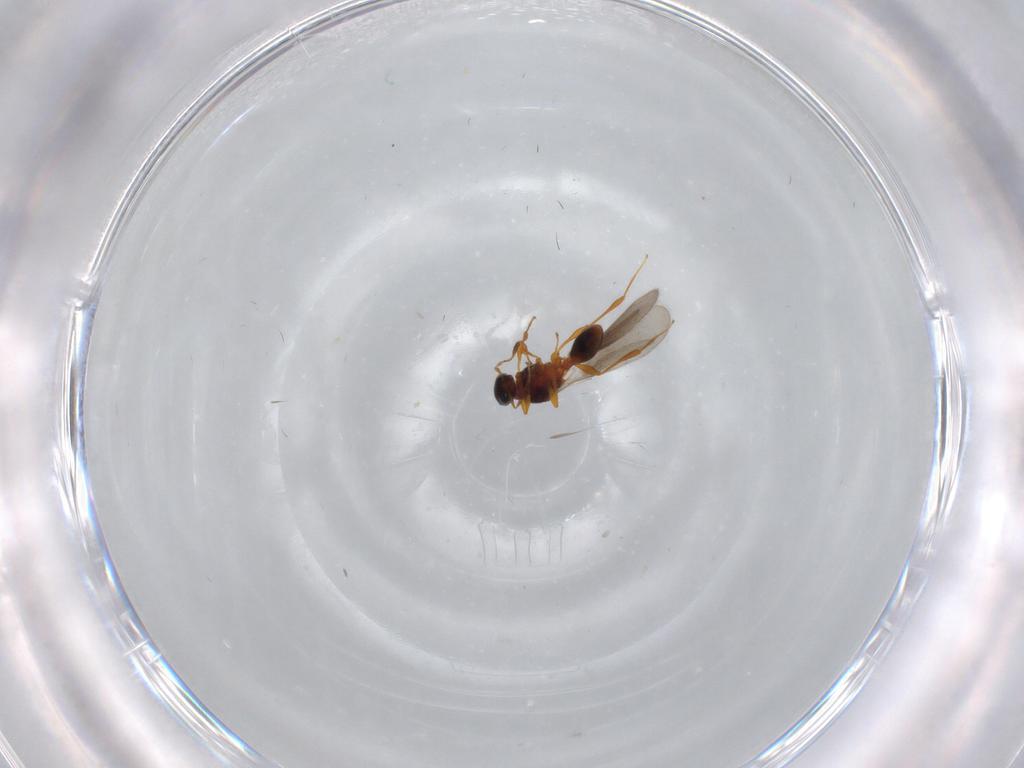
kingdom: Animalia
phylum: Arthropoda
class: Insecta
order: Hymenoptera
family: Platygastridae
